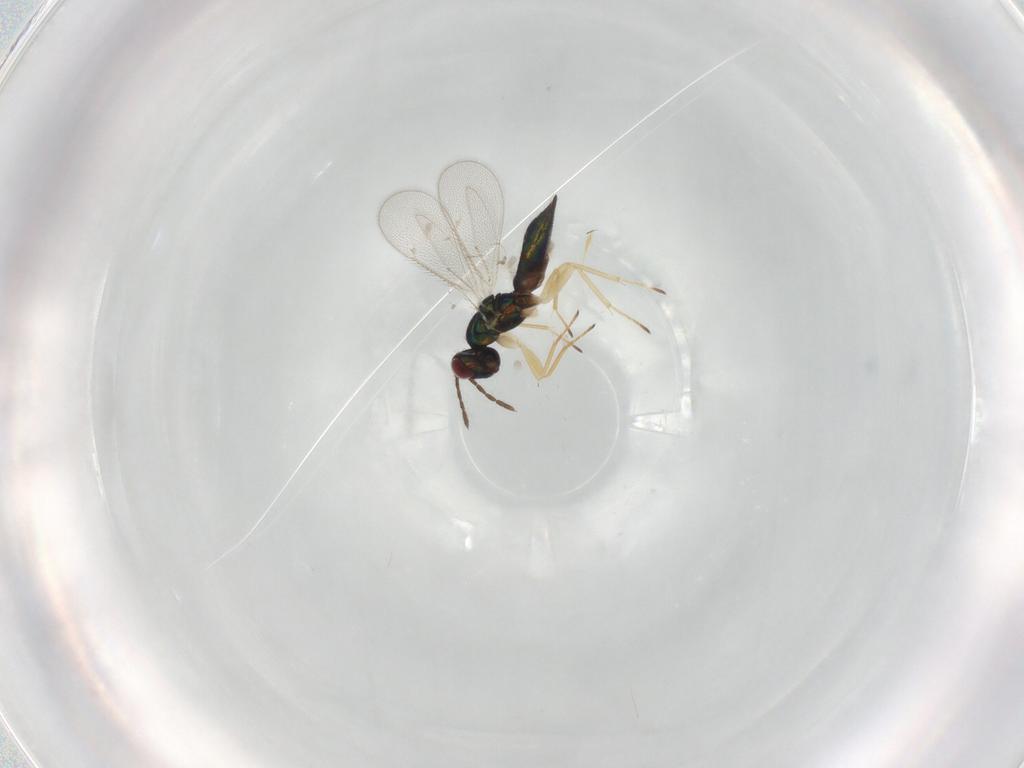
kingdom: Animalia
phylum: Arthropoda
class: Insecta
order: Hymenoptera
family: Eulophidae
